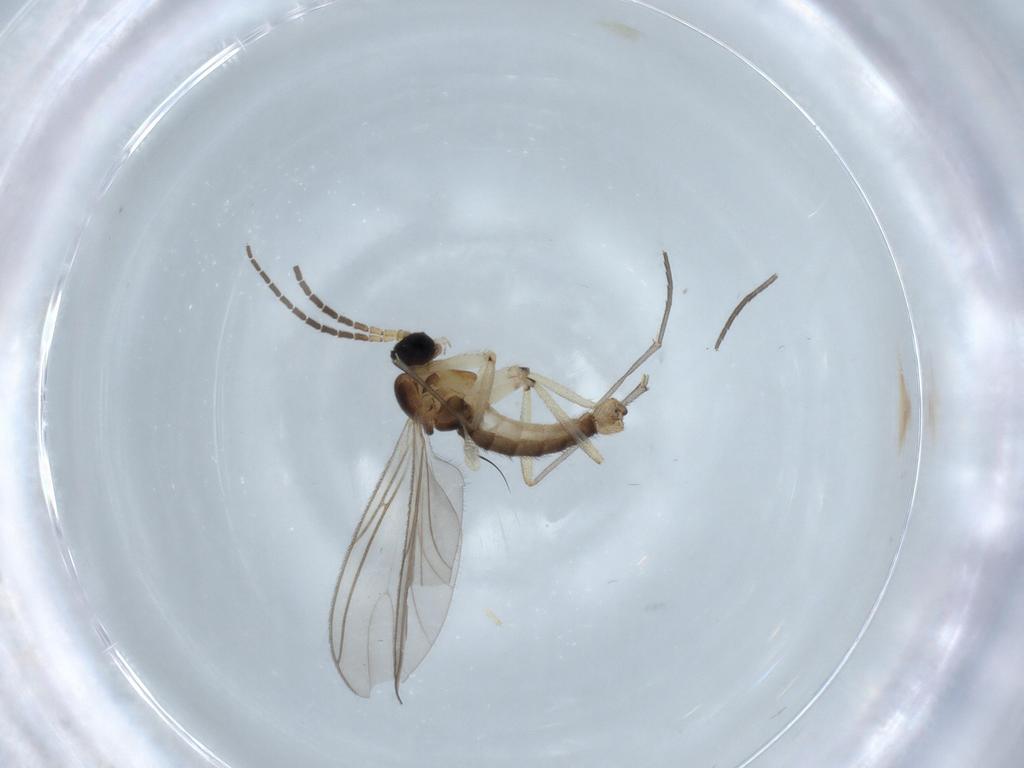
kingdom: Animalia
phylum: Arthropoda
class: Insecta
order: Diptera
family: Sciaridae
